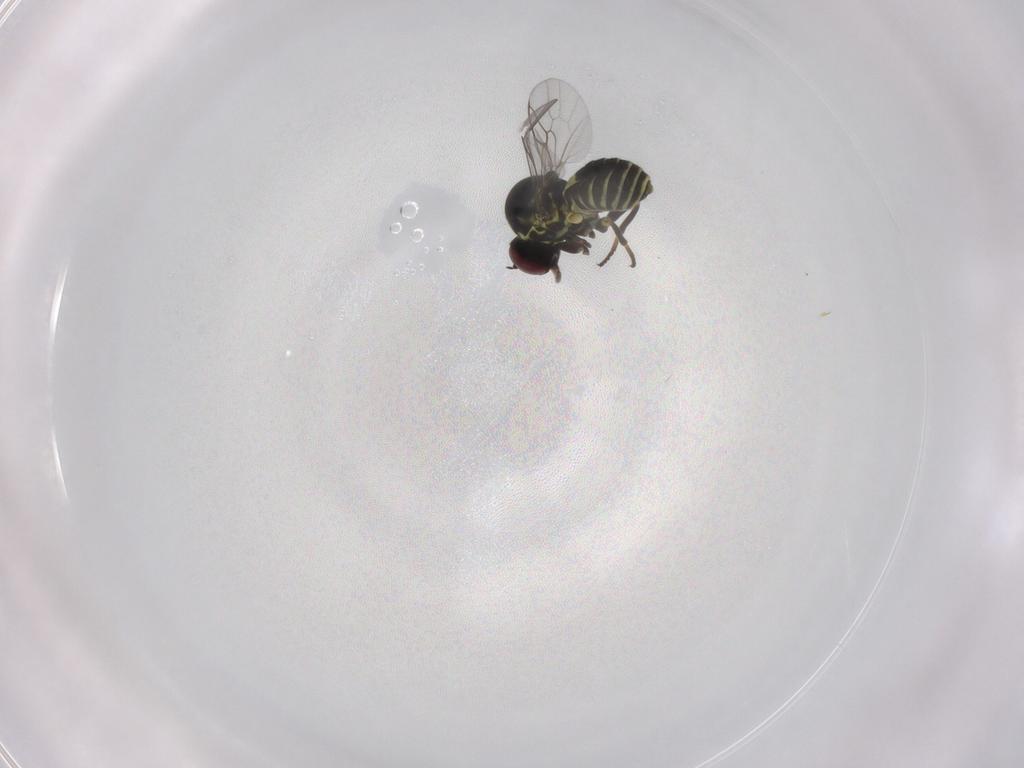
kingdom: Animalia
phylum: Arthropoda
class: Insecta
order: Diptera
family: Mythicomyiidae
